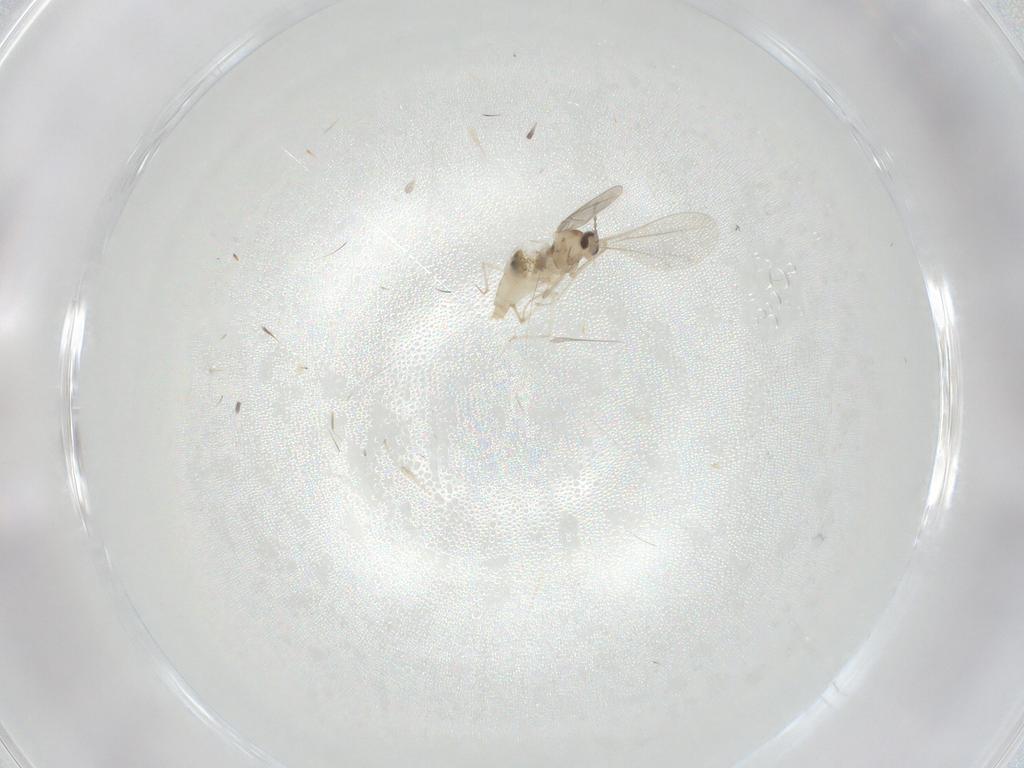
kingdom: Animalia
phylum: Arthropoda
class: Insecta
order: Diptera
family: Cecidomyiidae
